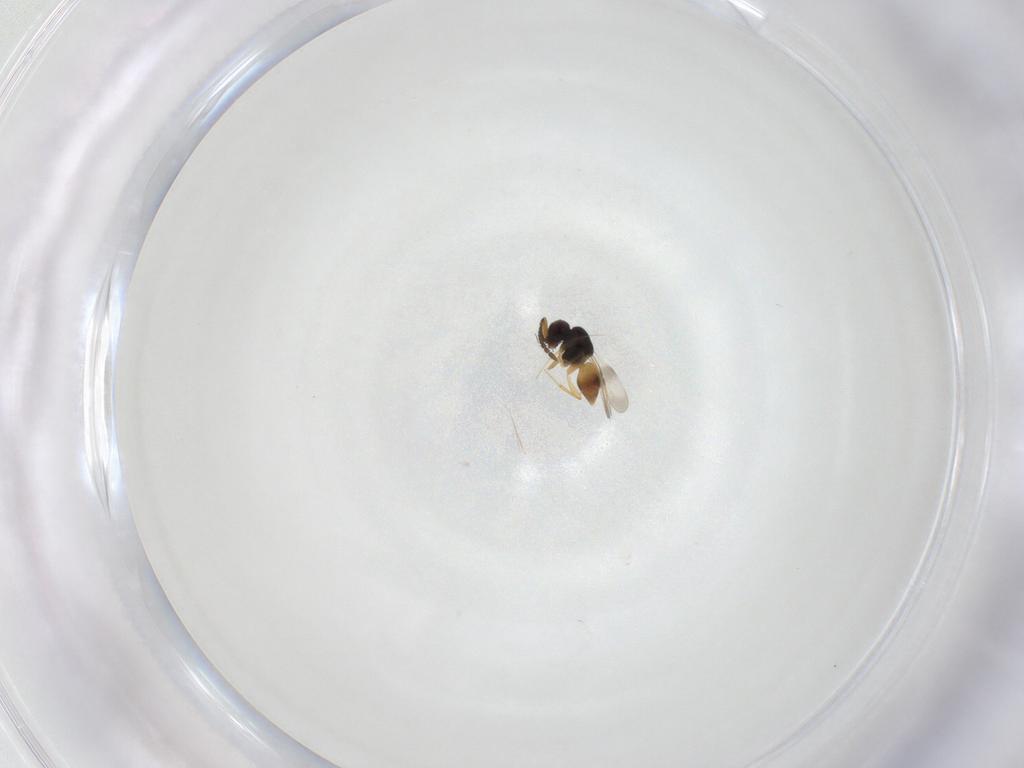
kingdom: Animalia
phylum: Arthropoda
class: Insecta
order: Hymenoptera
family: Ceraphronidae
